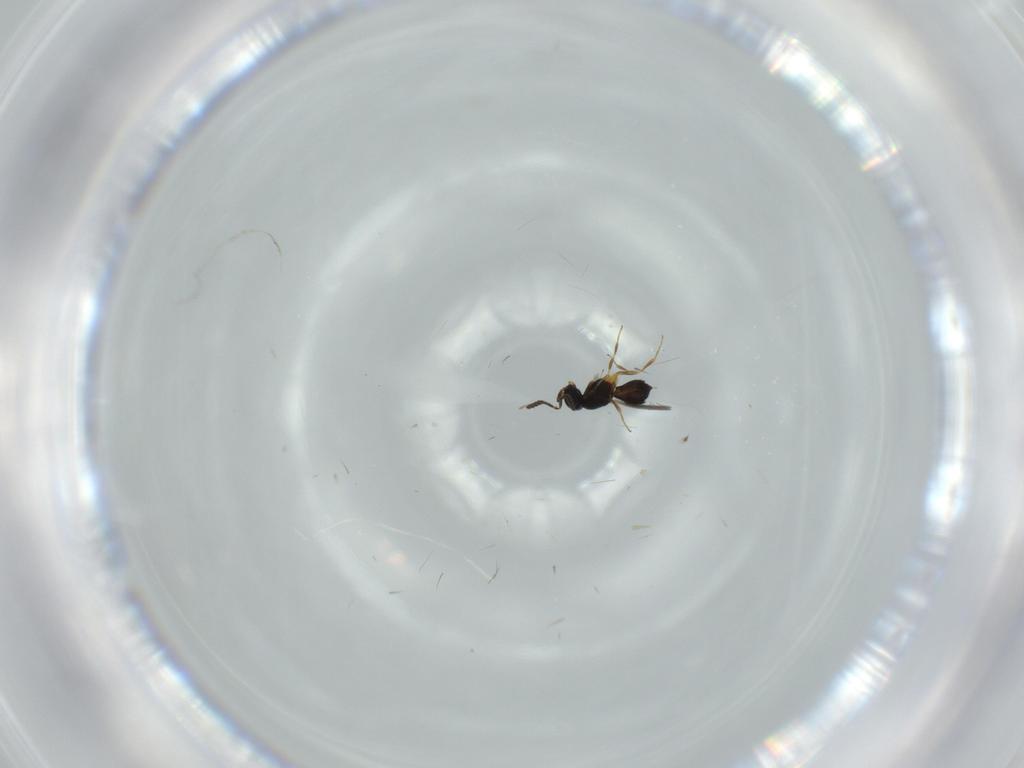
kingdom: Animalia
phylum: Arthropoda
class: Insecta
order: Hymenoptera
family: Scelionidae
